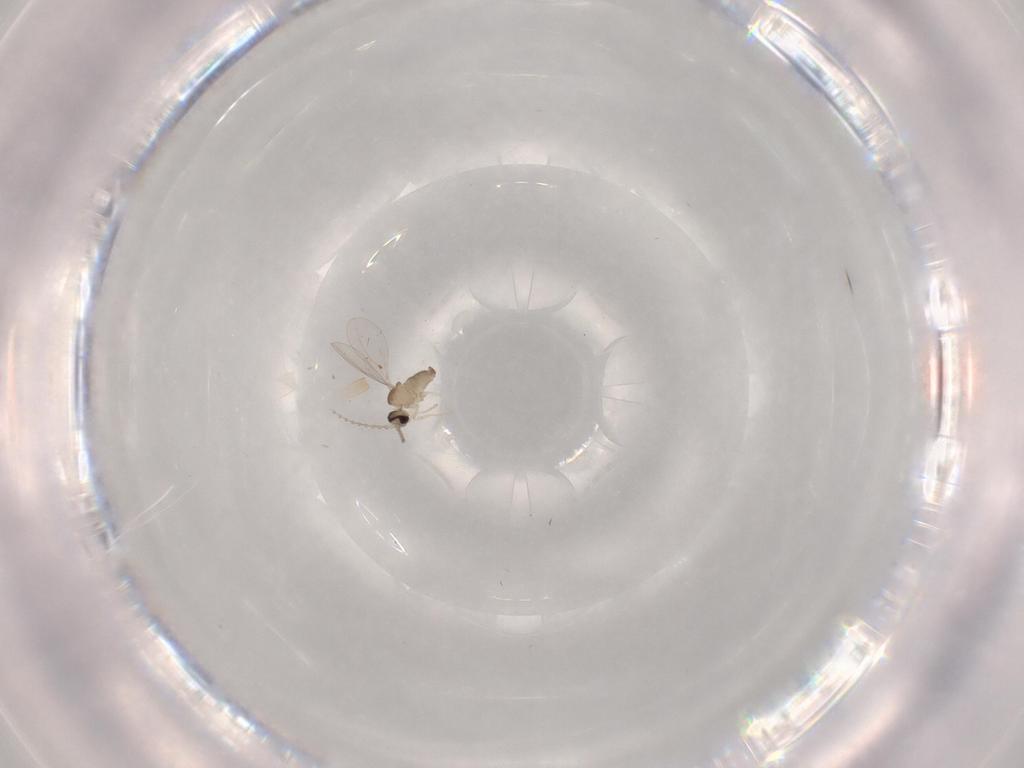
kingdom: Animalia
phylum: Arthropoda
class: Insecta
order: Diptera
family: Cecidomyiidae
